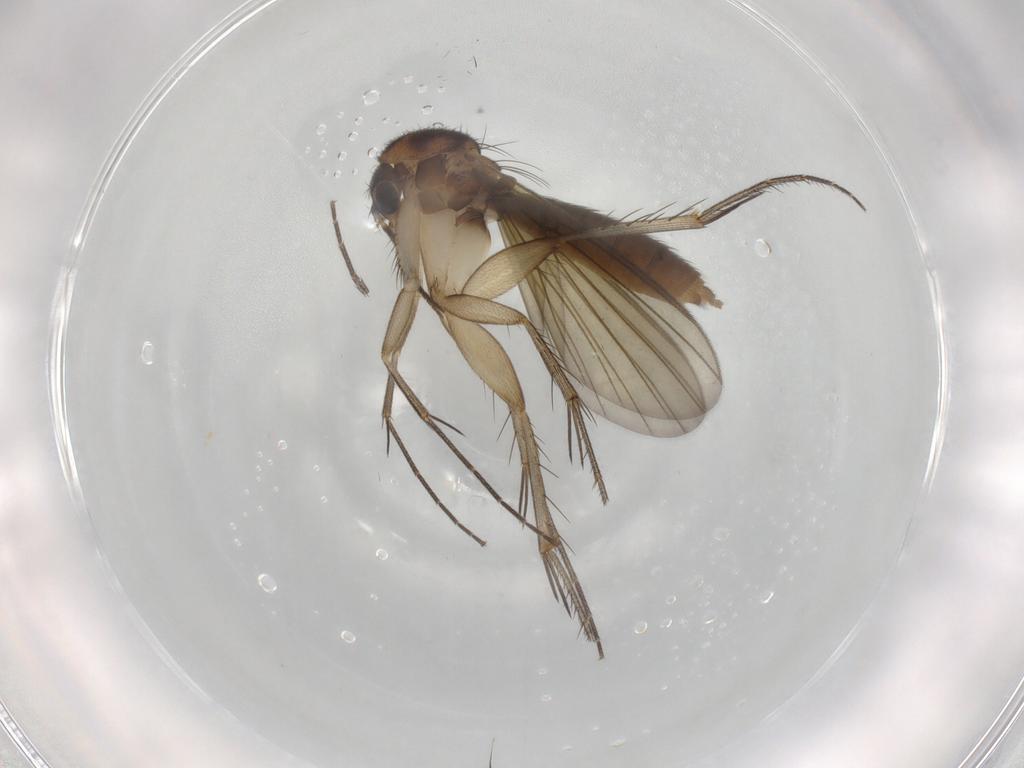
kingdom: Animalia
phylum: Arthropoda
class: Insecta
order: Diptera
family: Mycetophilidae
